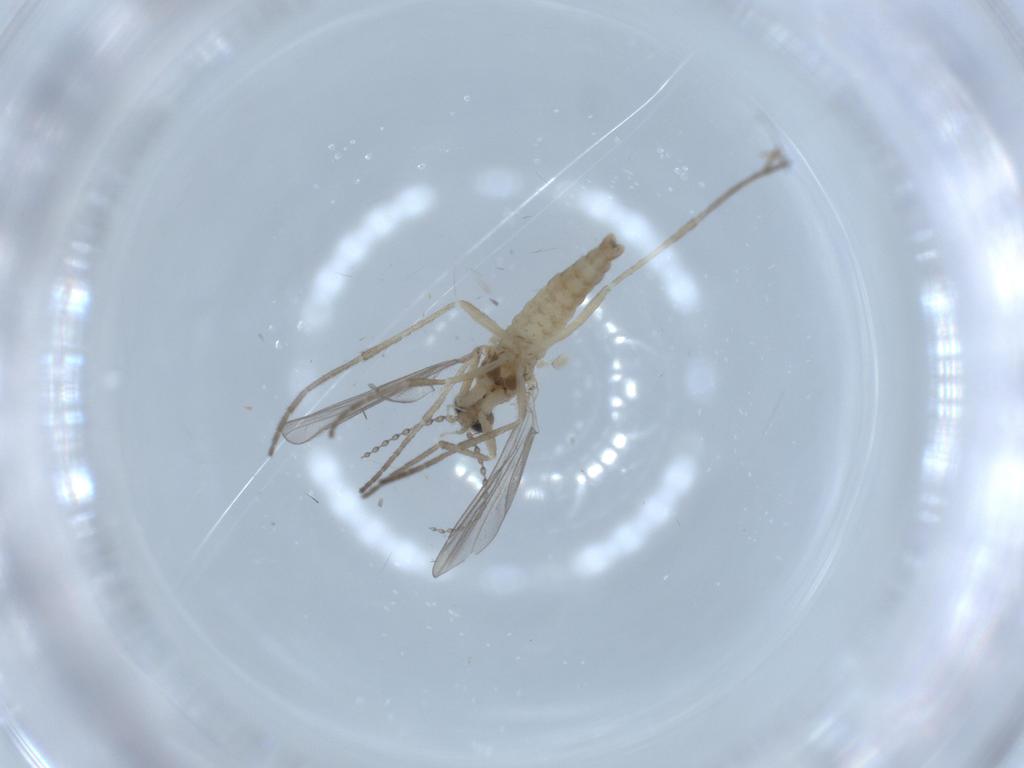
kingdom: Animalia
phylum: Arthropoda
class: Insecta
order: Diptera
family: Cecidomyiidae
